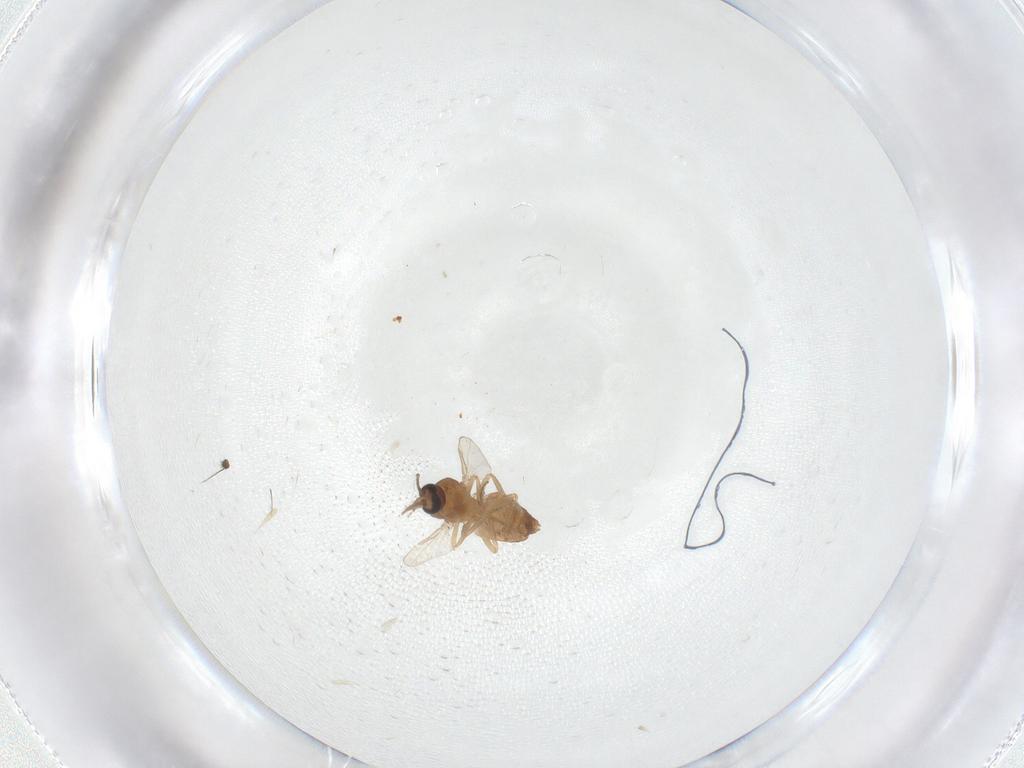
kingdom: Animalia
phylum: Arthropoda
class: Insecta
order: Diptera
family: Ceratopogonidae
